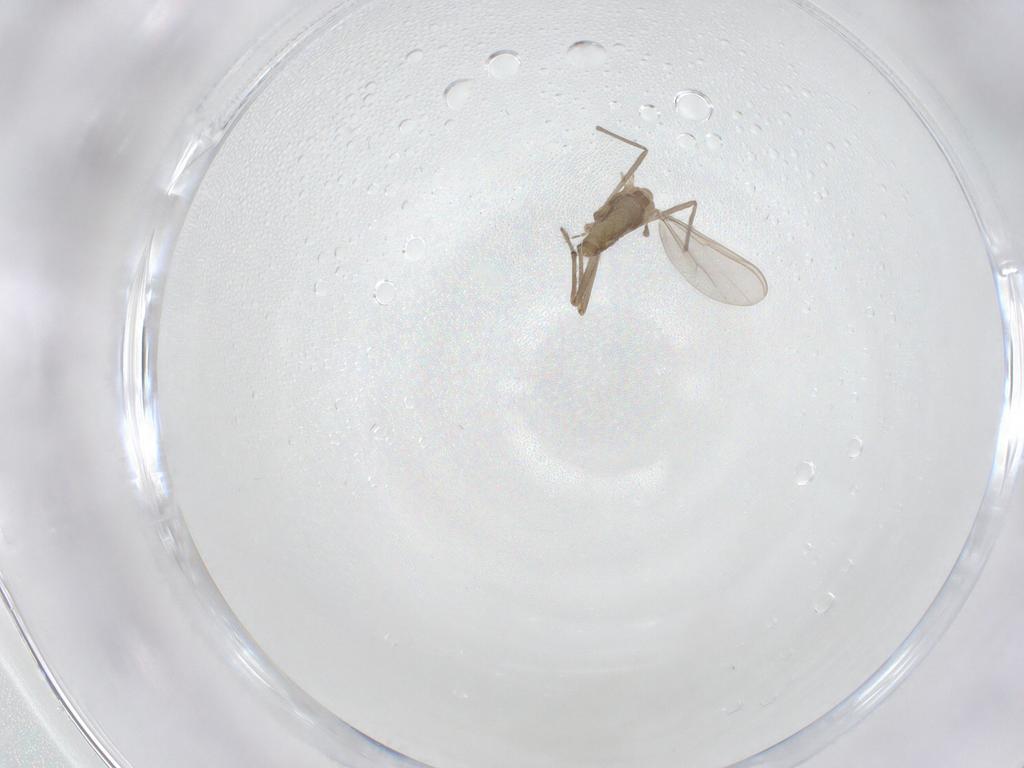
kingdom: Animalia
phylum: Arthropoda
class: Insecta
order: Diptera
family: Chironomidae
